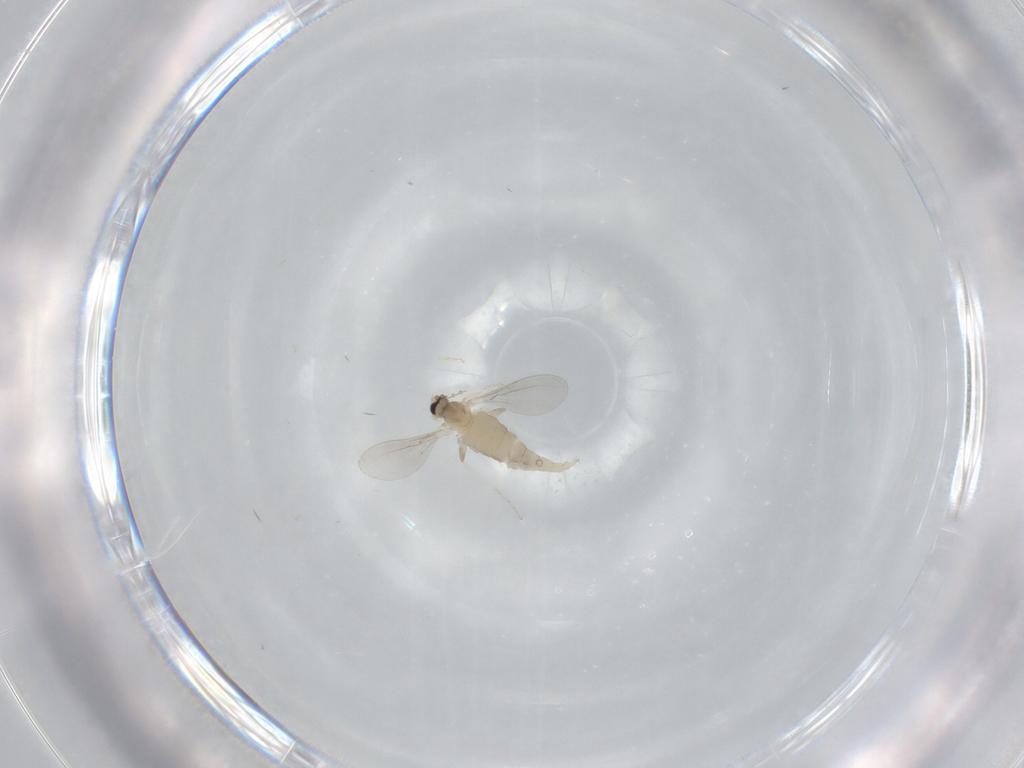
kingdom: Animalia
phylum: Arthropoda
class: Insecta
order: Diptera
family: Cecidomyiidae
